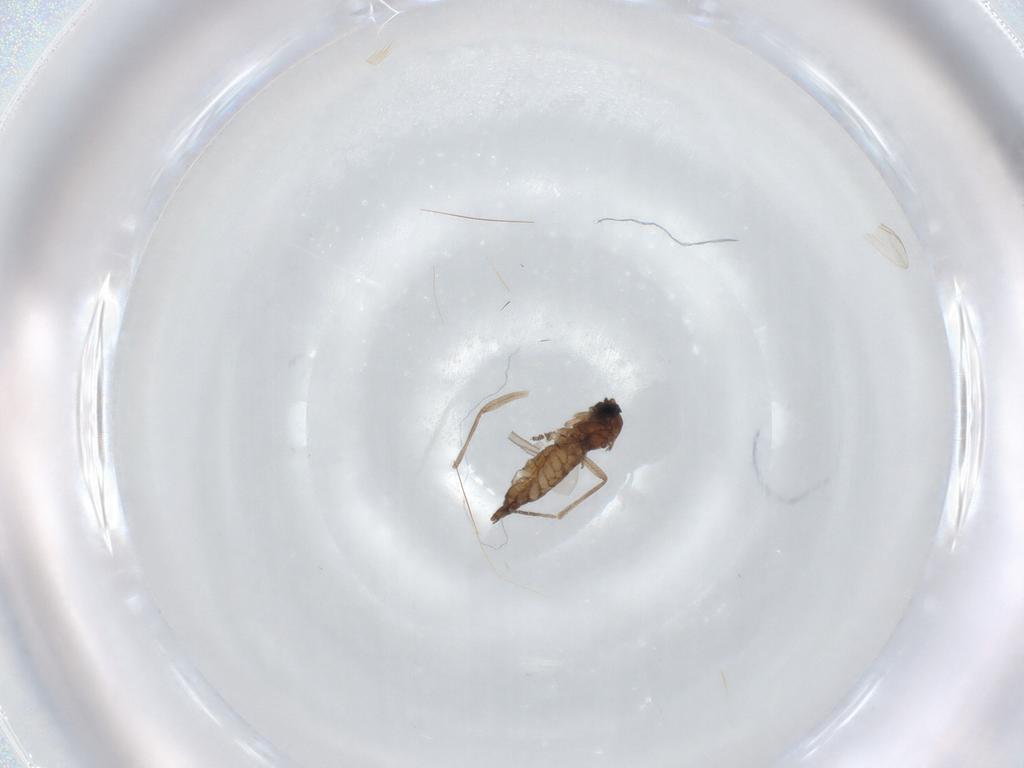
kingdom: Animalia
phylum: Arthropoda
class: Insecta
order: Diptera
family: Sciaridae
